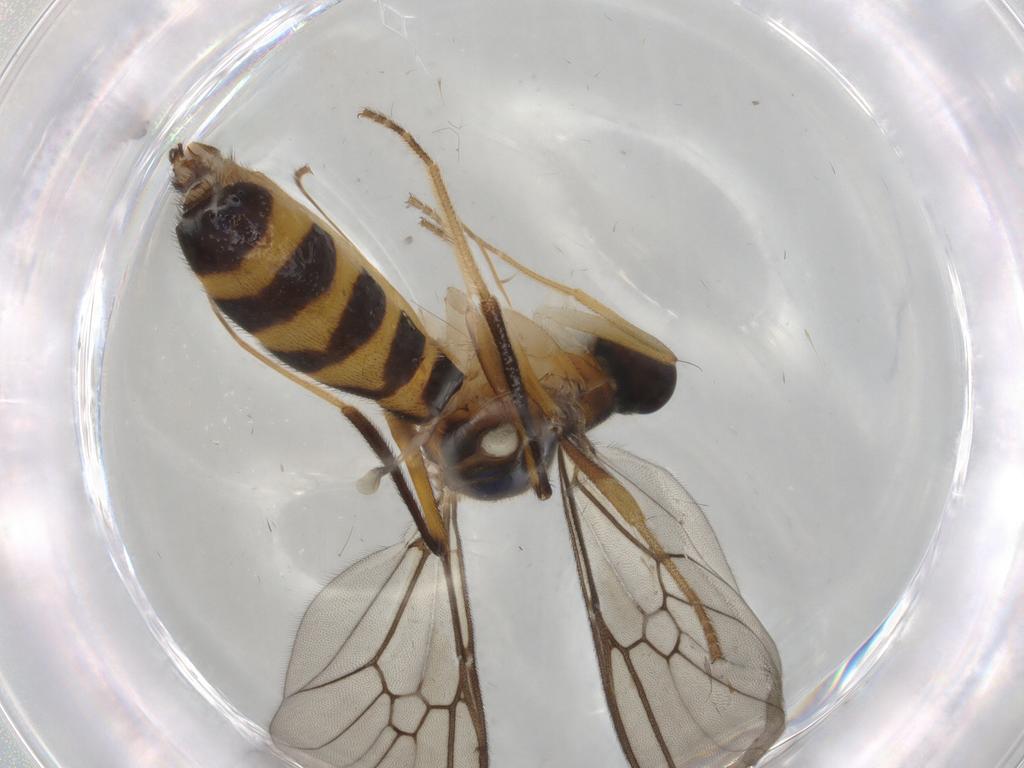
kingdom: Animalia
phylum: Arthropoda
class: Insecta
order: Diptera
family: Phoridae
